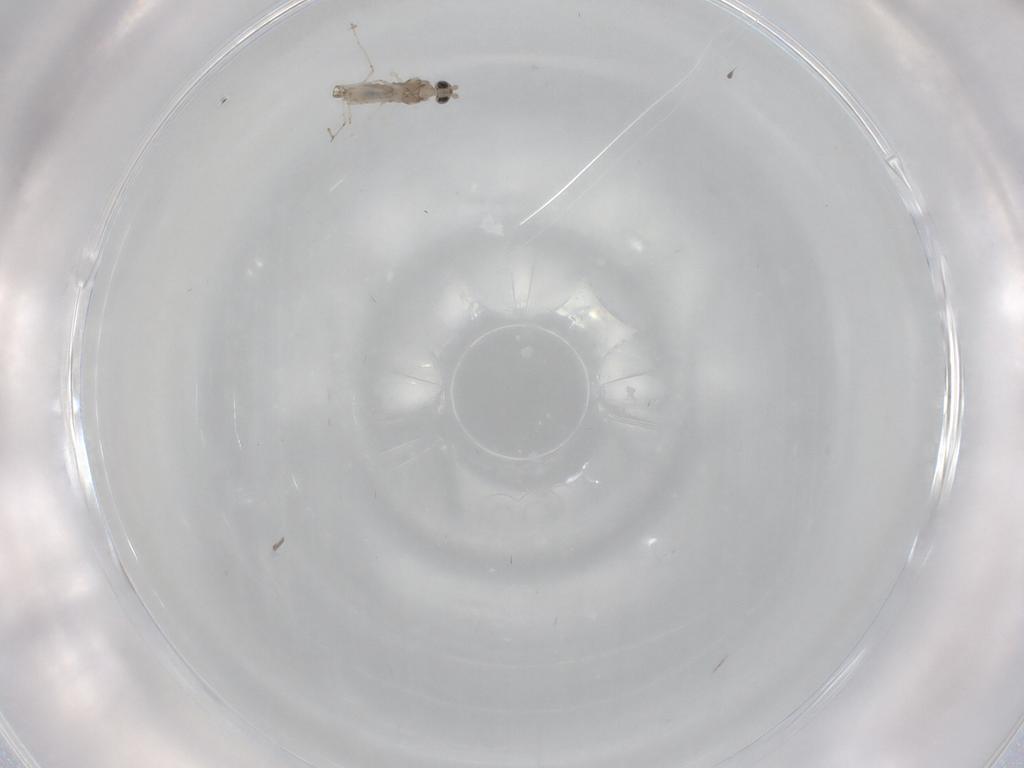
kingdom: Animalia
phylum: Arthropoda
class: Insecta
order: Diptera
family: Cecidomyiidae
